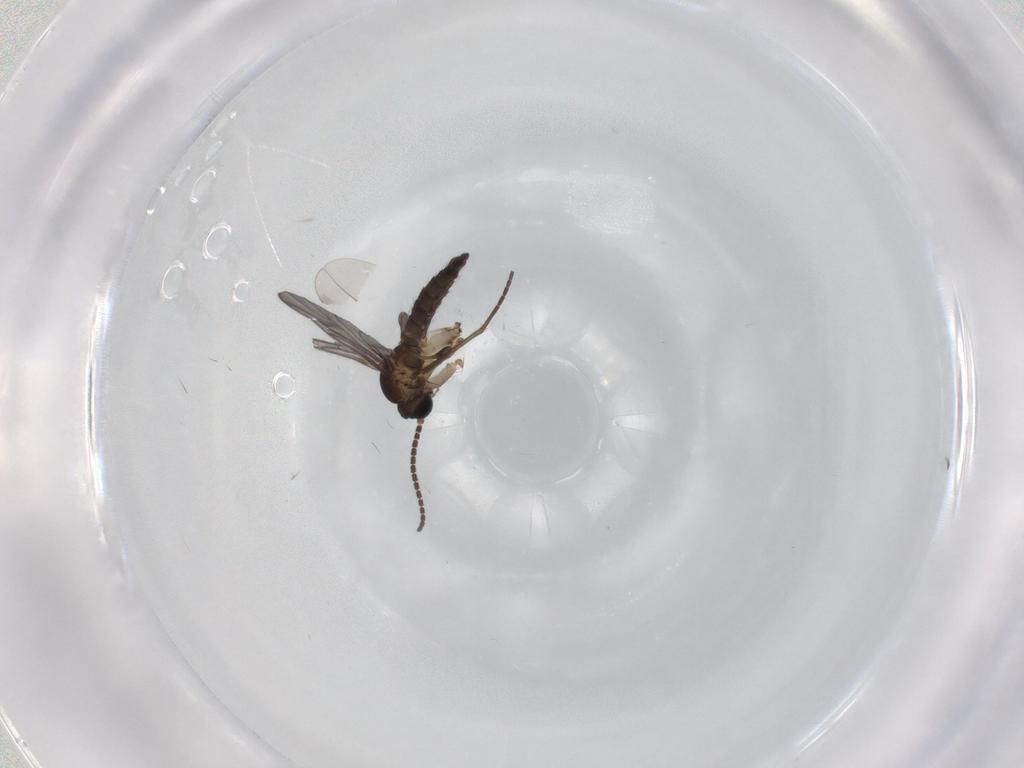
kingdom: Animalia
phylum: Arthropoda
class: Insecta
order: Diptera
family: Sciaridae
